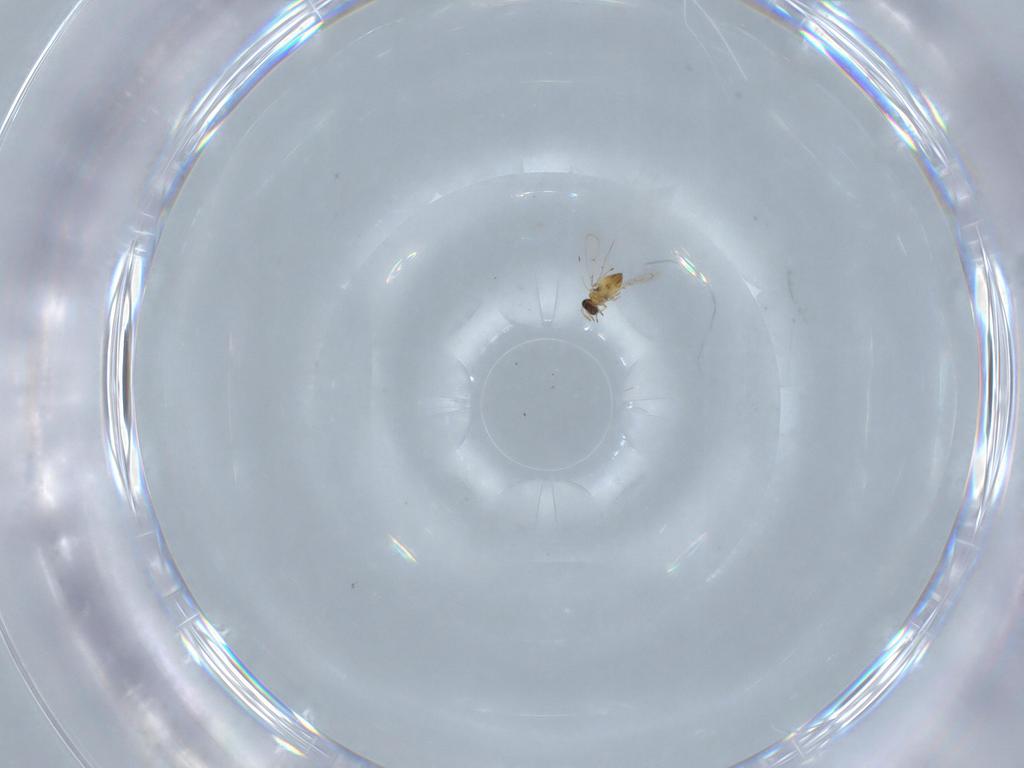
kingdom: Animalia
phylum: Arthropoda
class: Insecta
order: Hymenoptera
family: Trichogrammatidae
